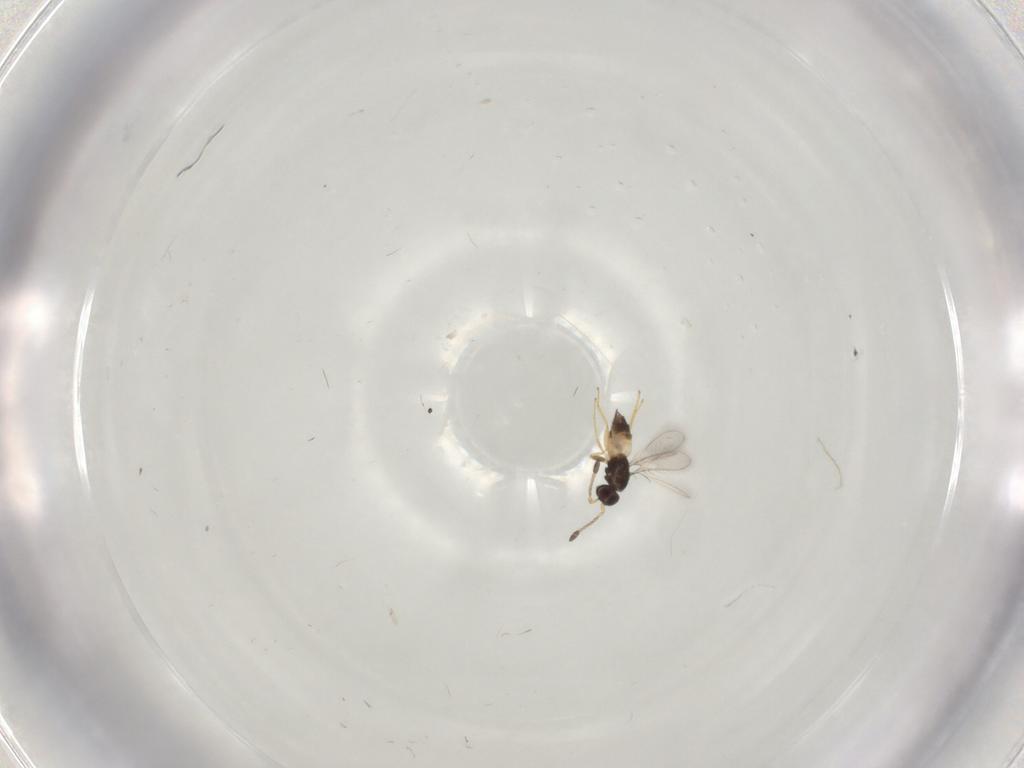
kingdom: Animalia
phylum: Arthropoda
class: Insecta
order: Hymenoptera
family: Mymaridae
